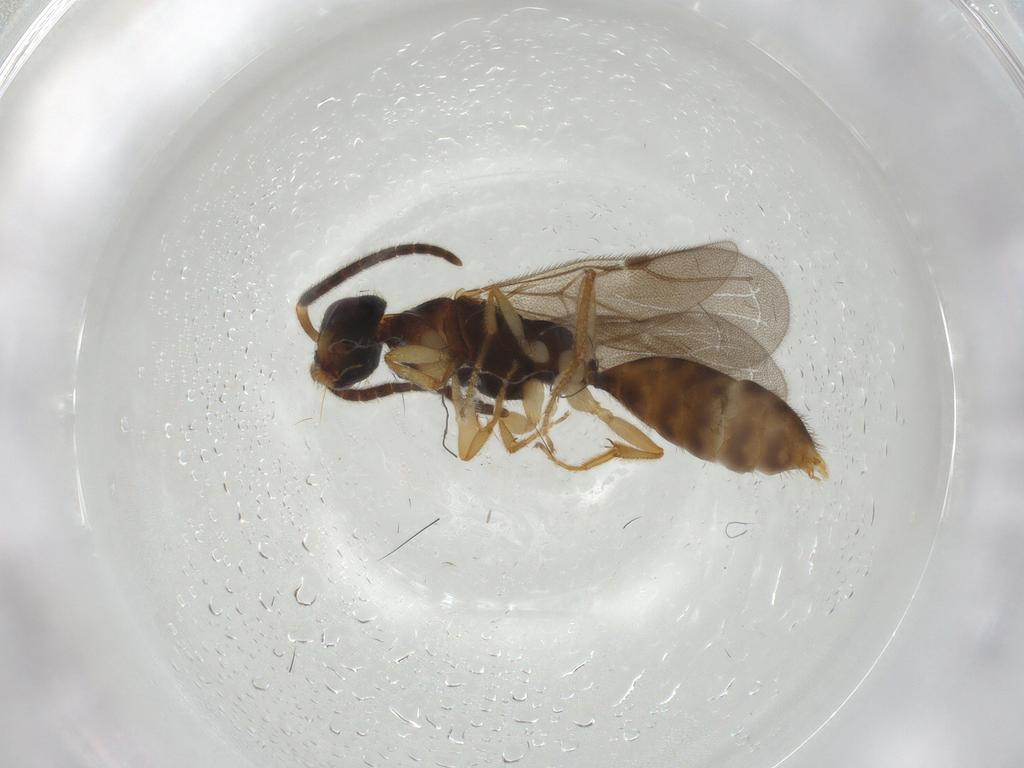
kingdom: Animalia
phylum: Arthropoda
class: Insecta
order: Hymenoptera
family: Bethylidae
